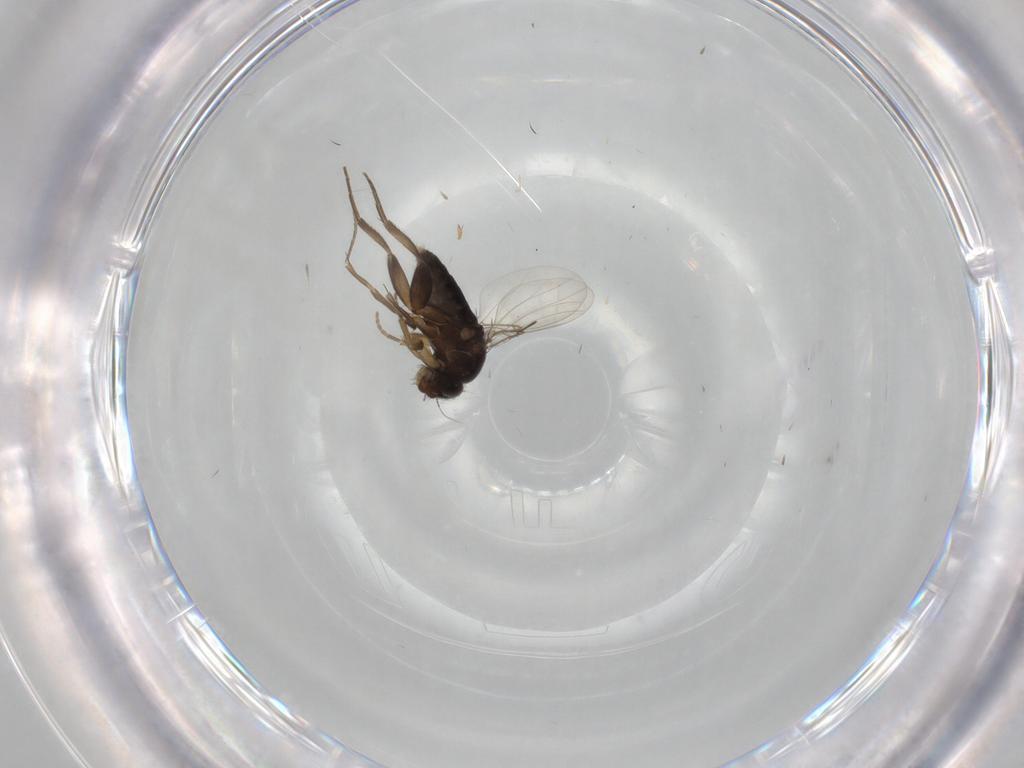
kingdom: Animalia
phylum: Arthropoda
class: Insecta
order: Diptera
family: Phoridae
